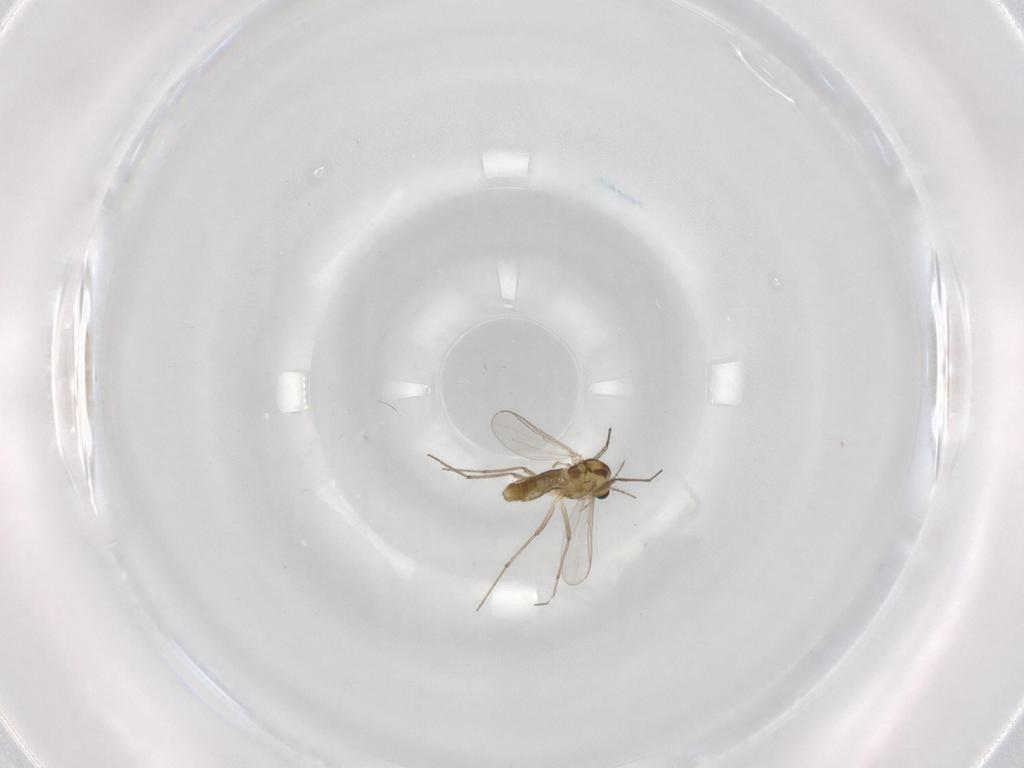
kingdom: Animalia
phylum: Arthropoda
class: Insecta
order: Diptera
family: Chironomidae
